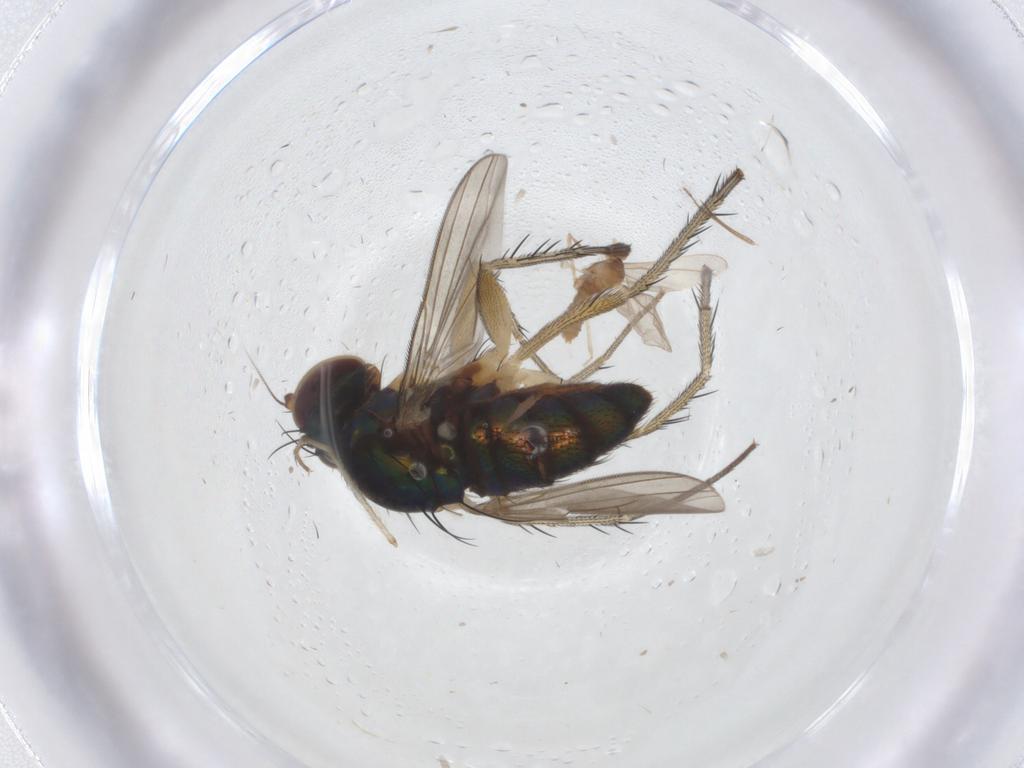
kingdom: Animalia
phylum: Arthropoda
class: Insecta
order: Diptera
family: Dolichopodidae
